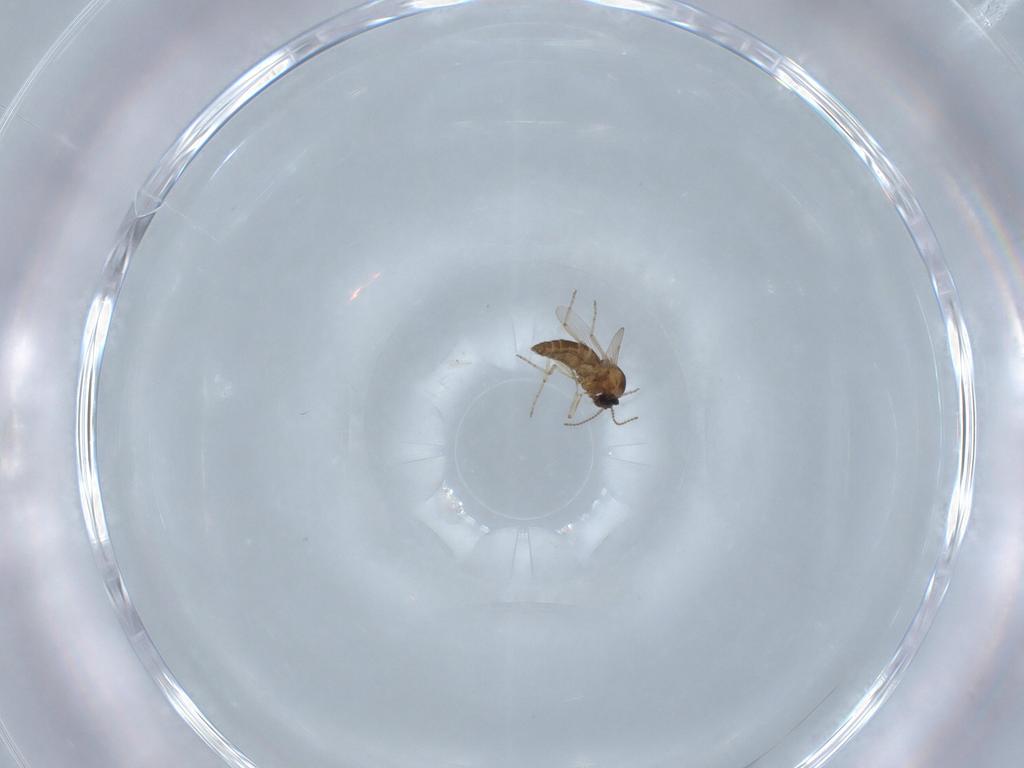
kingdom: Animalia
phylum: Arthropoda
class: Insecta
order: Diptera
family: Ceratopogonidae
